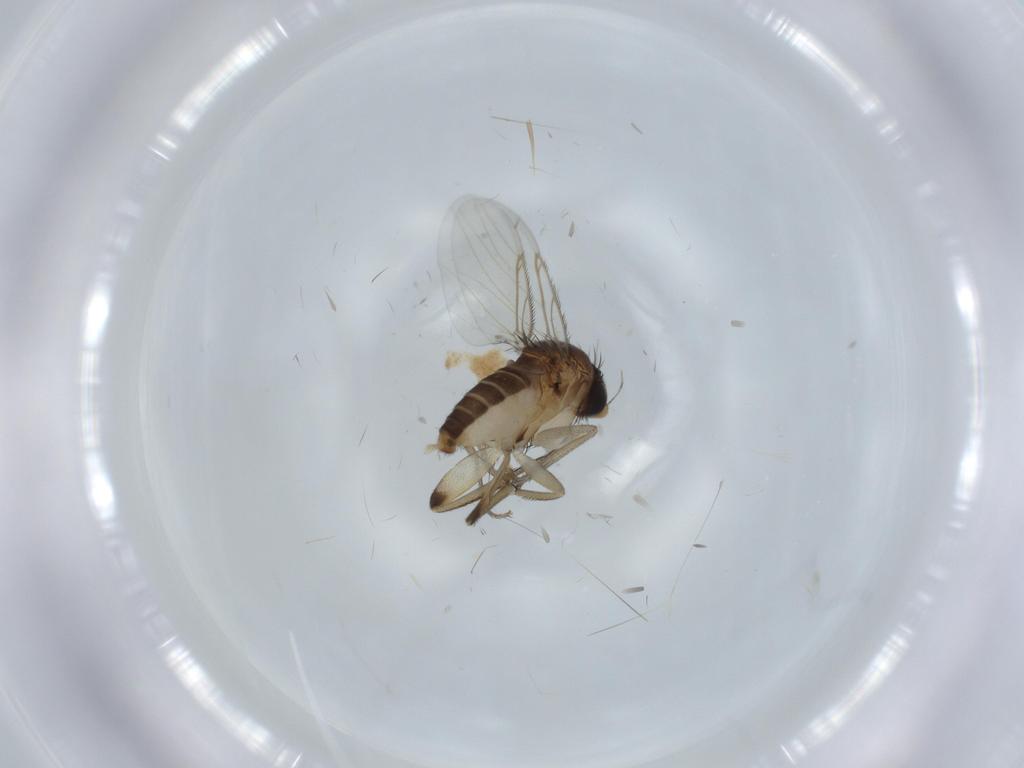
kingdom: Animalia
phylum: Arthropoda
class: Insecta
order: Diptera
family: Phoridae
